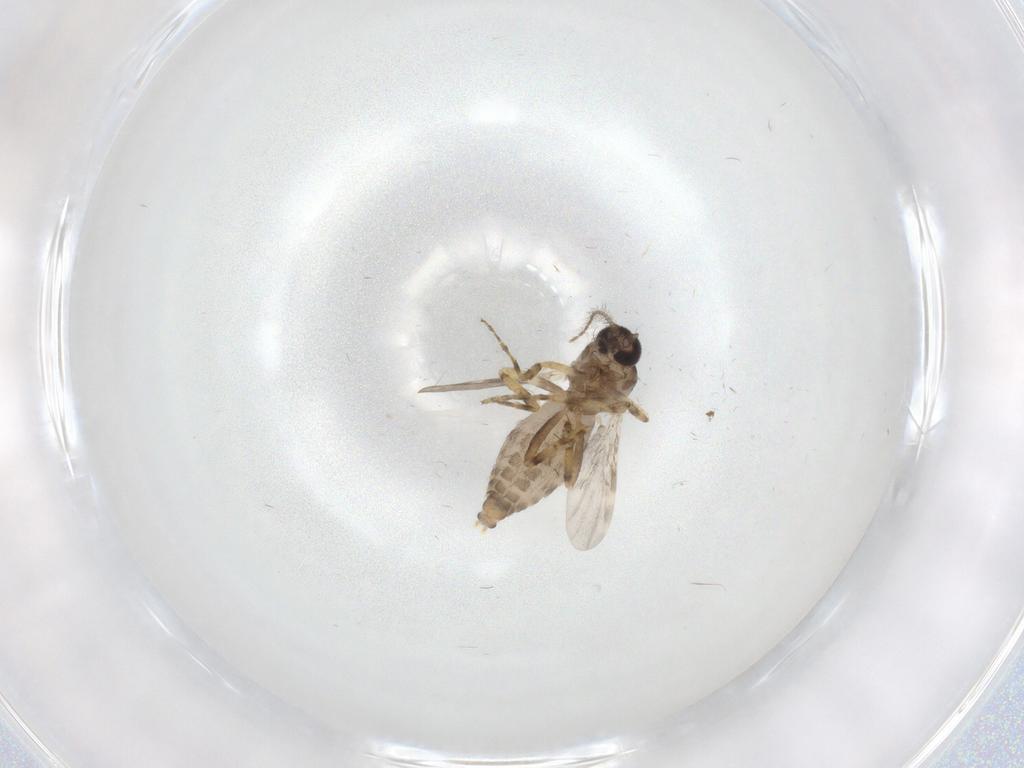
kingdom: Animalia
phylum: Arthropoda
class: Insecta
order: Diptera
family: Ceratopogonidae
